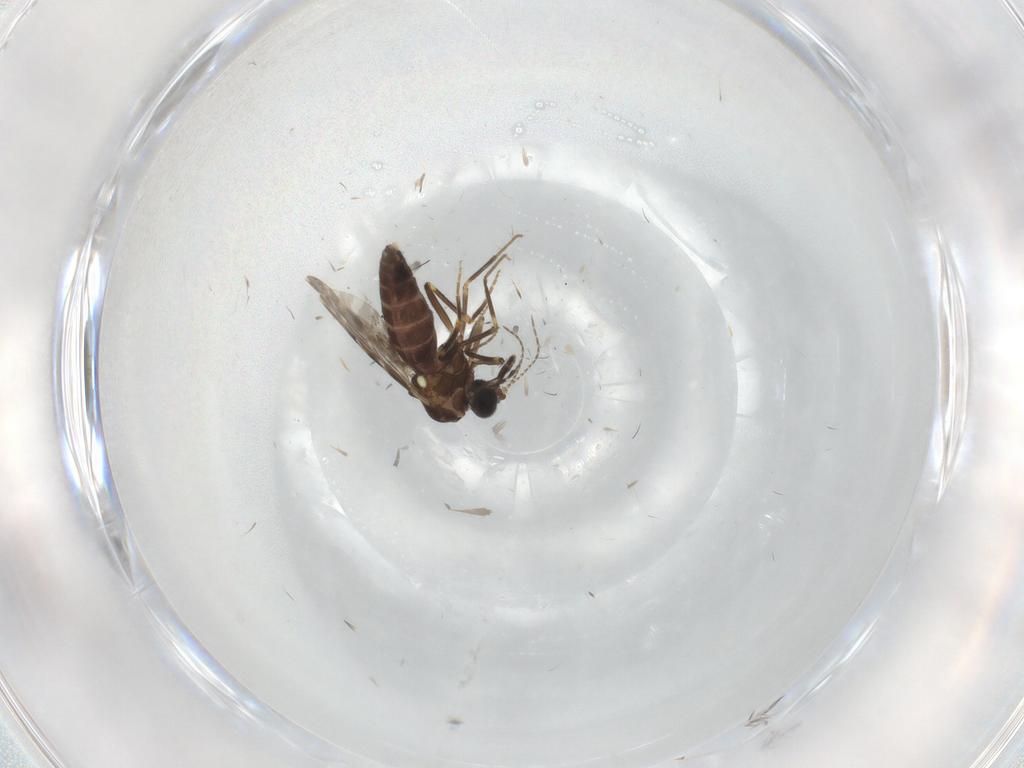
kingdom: Animalia
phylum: Arthropoda
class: Insecta
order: Diptera
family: Ceratopogonidae
